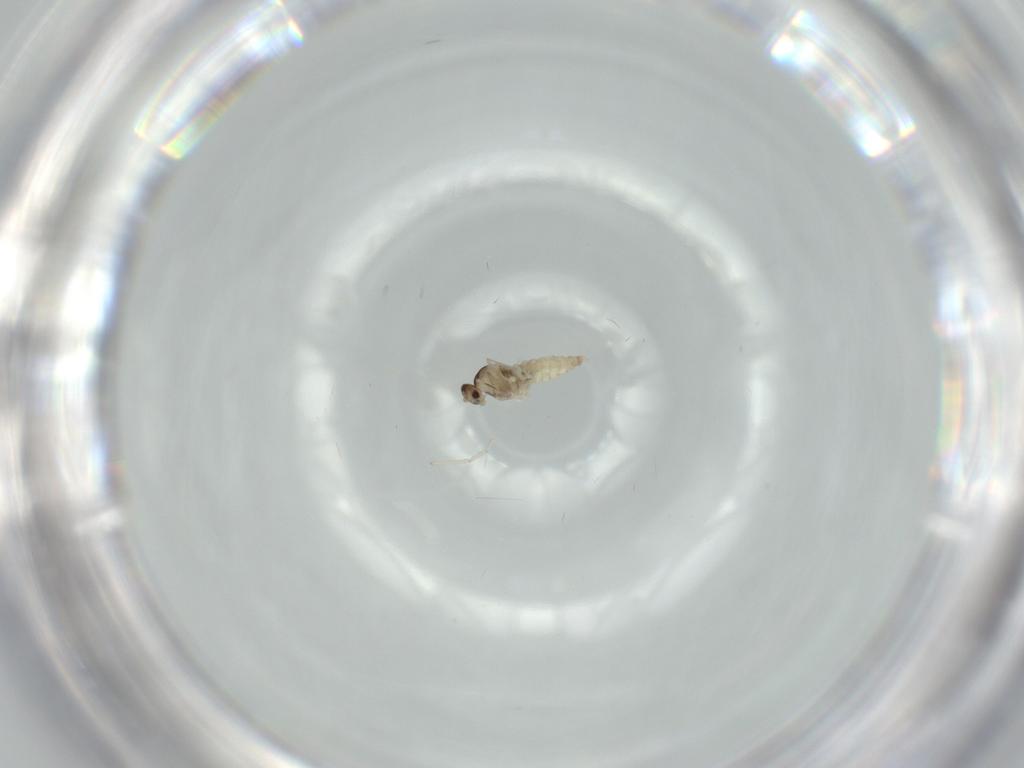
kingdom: Animalia
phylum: Arthropoda
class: Insecta
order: Diptera
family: Cecidomyiidae
